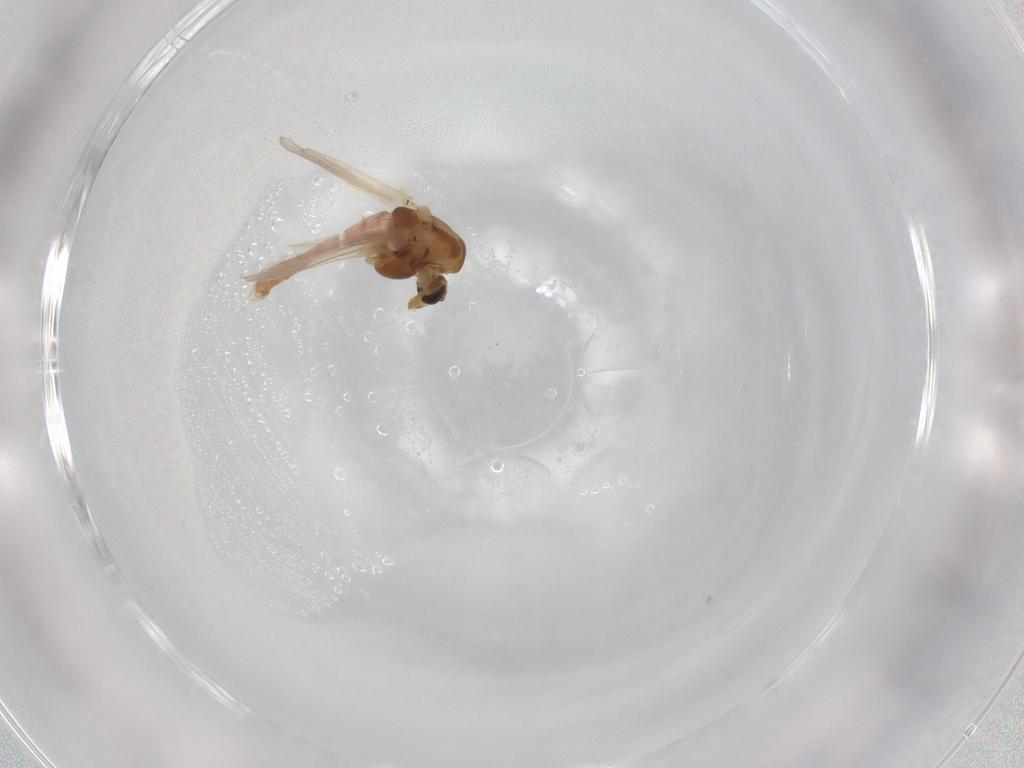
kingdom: Animalia
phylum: Arthropoda
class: Insecta
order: Diptera
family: Chironomidae
